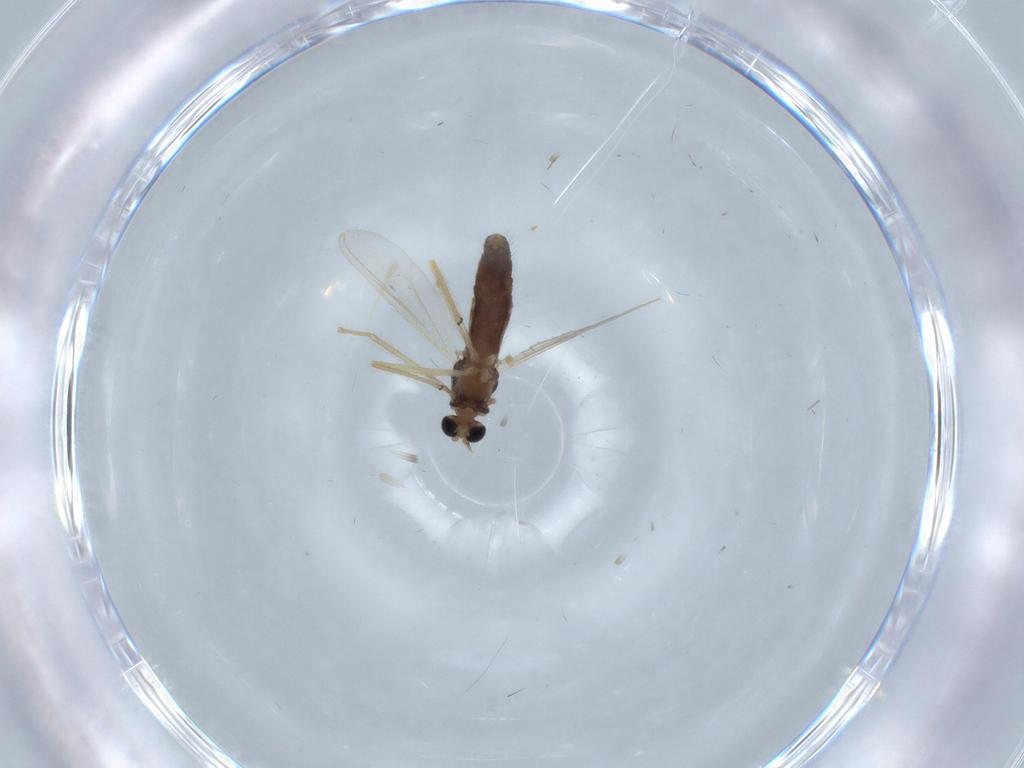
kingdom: Animalia
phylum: Arthropoda
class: Insecta
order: Diptera
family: Chironomidae
